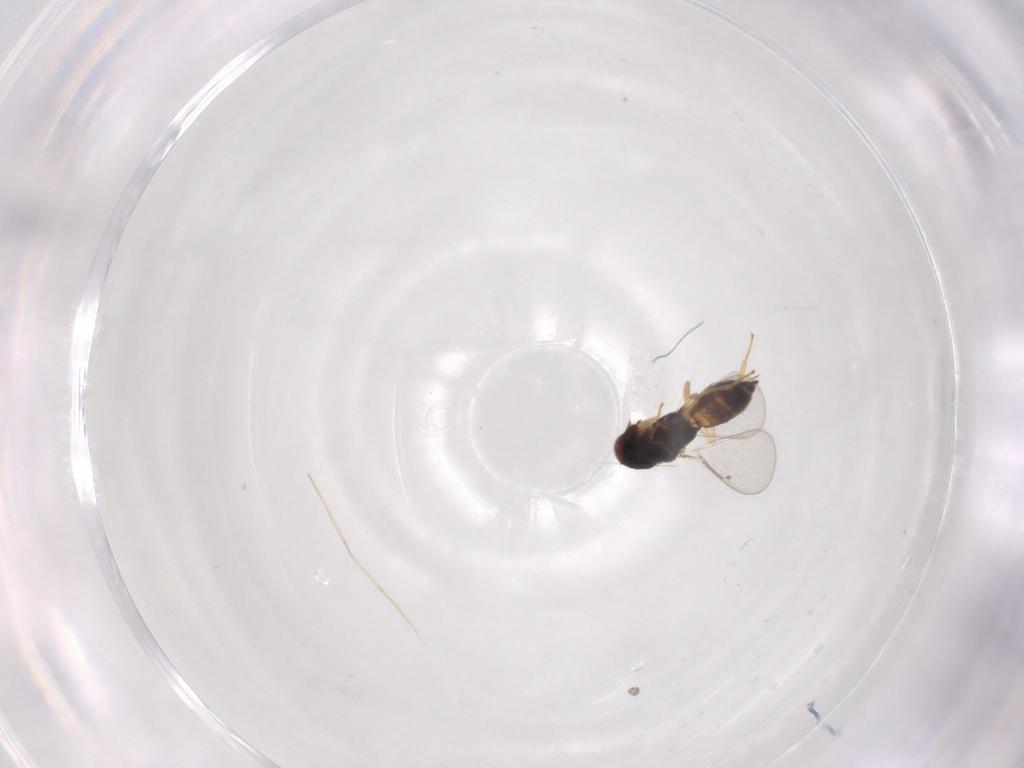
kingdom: Animalia
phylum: Arthropoda
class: Insecta
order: Hymenoptera
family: Eulophidae
